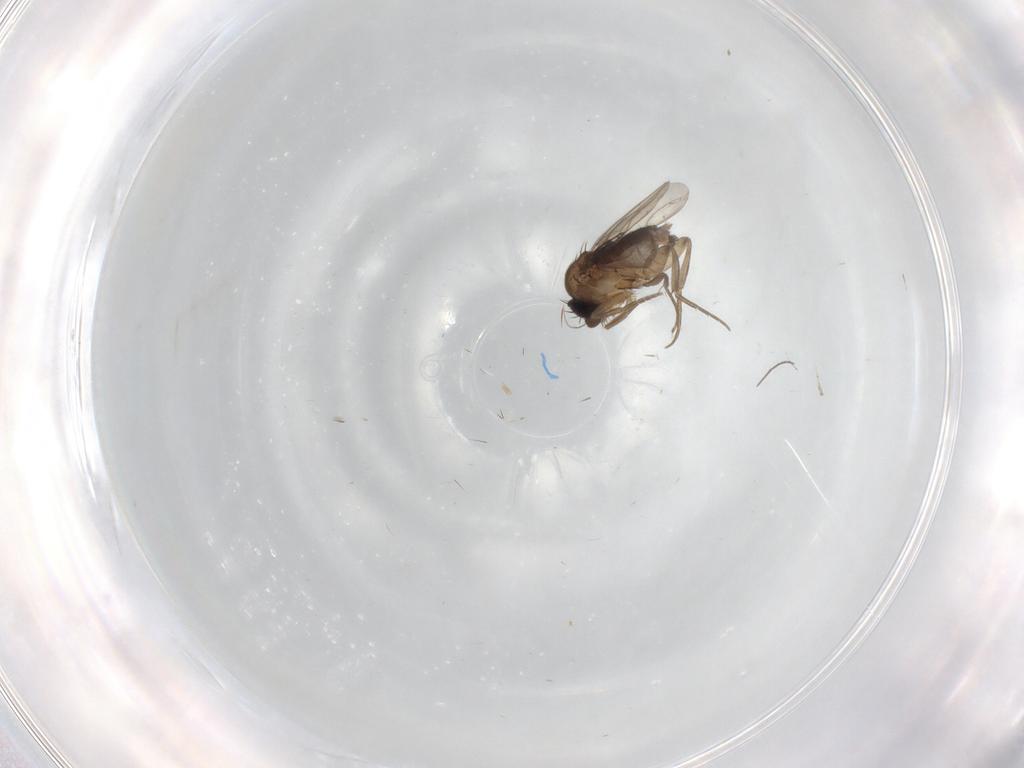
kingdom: Animalia
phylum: Arthropoda
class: Insecta
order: Diptera
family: Phoridae
